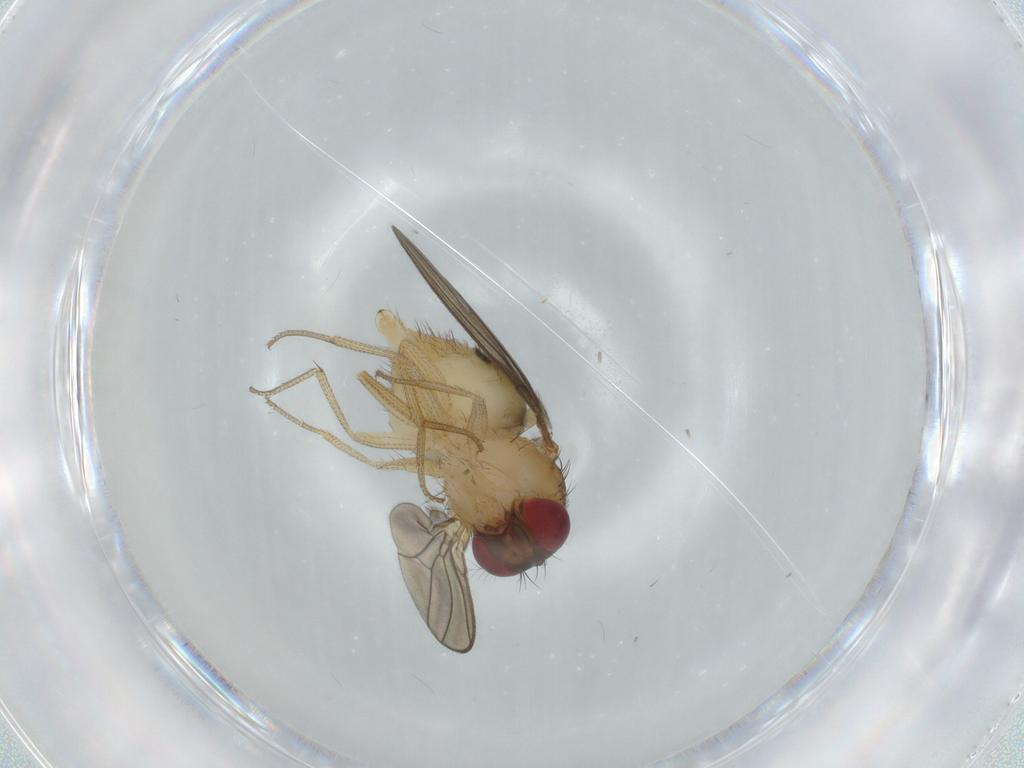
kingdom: Animalia
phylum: Arthropoda
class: Insecta
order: Diptera
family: Drosophilidae
